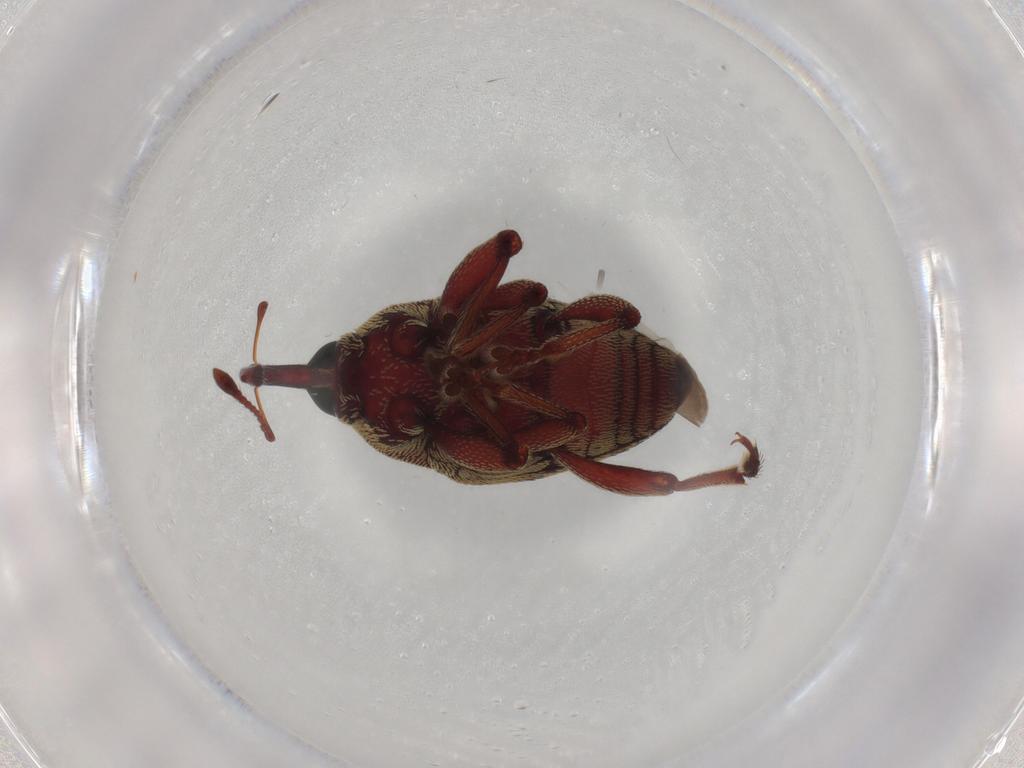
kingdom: Animalia
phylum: Arthropoda
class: Insecta
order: Coleoptera
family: Curculionidae
